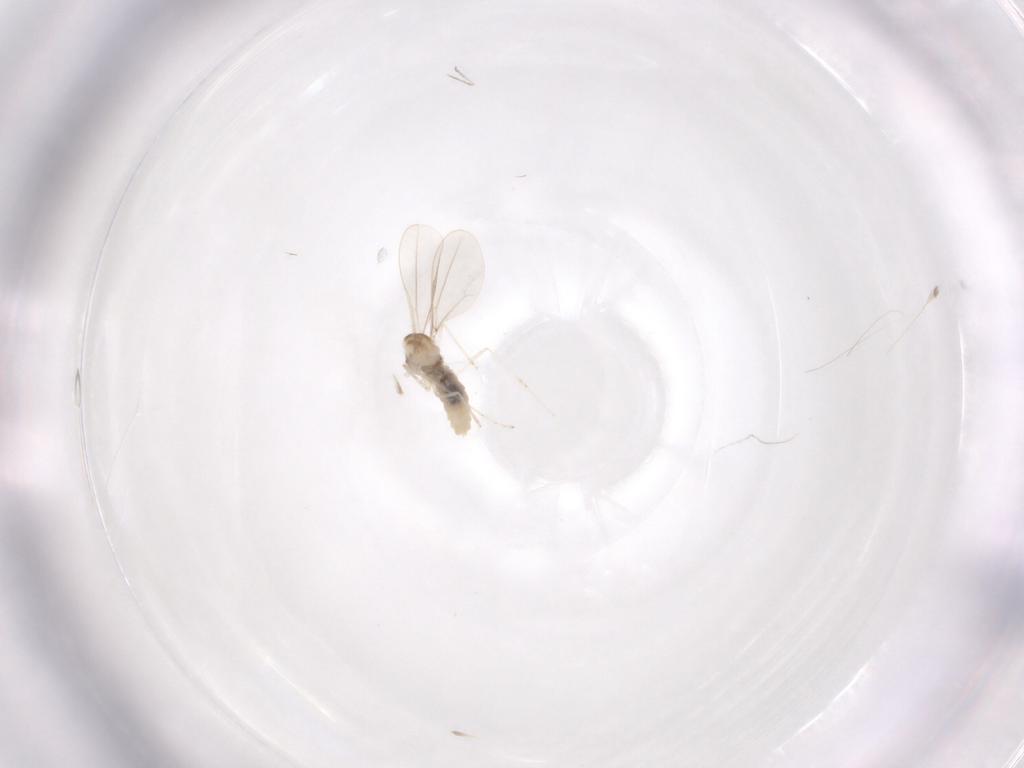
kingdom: Animalia
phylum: Arthropoda
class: Insecta
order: Diptera
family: Cecidomyiidae
